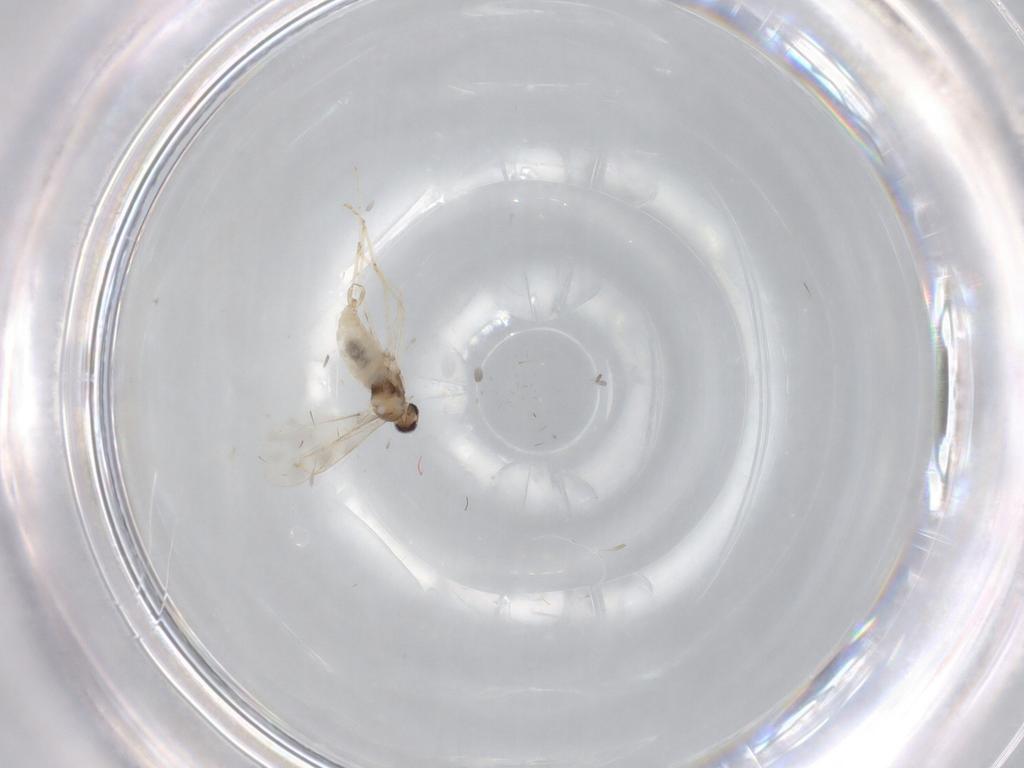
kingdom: Animalia
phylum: Arthropoda
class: Insecta
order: Diptera
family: Cecidomyiidae
